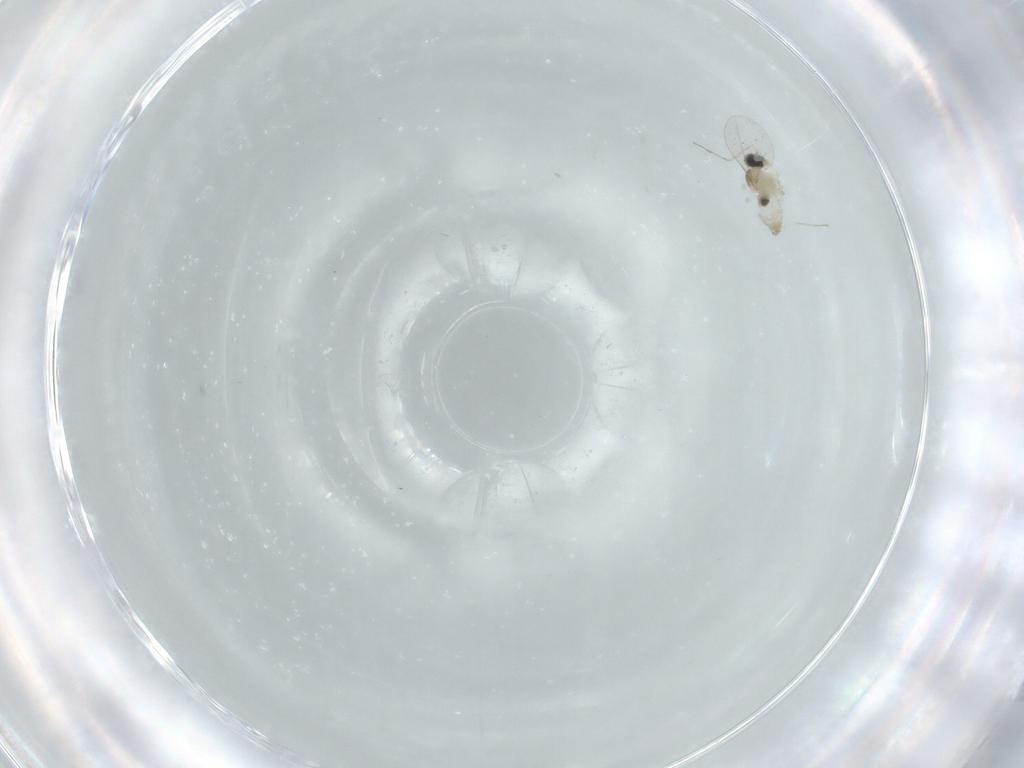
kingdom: Animalia
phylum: Arthropoda
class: Insecta
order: Diptera
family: Cecidomyiidae
